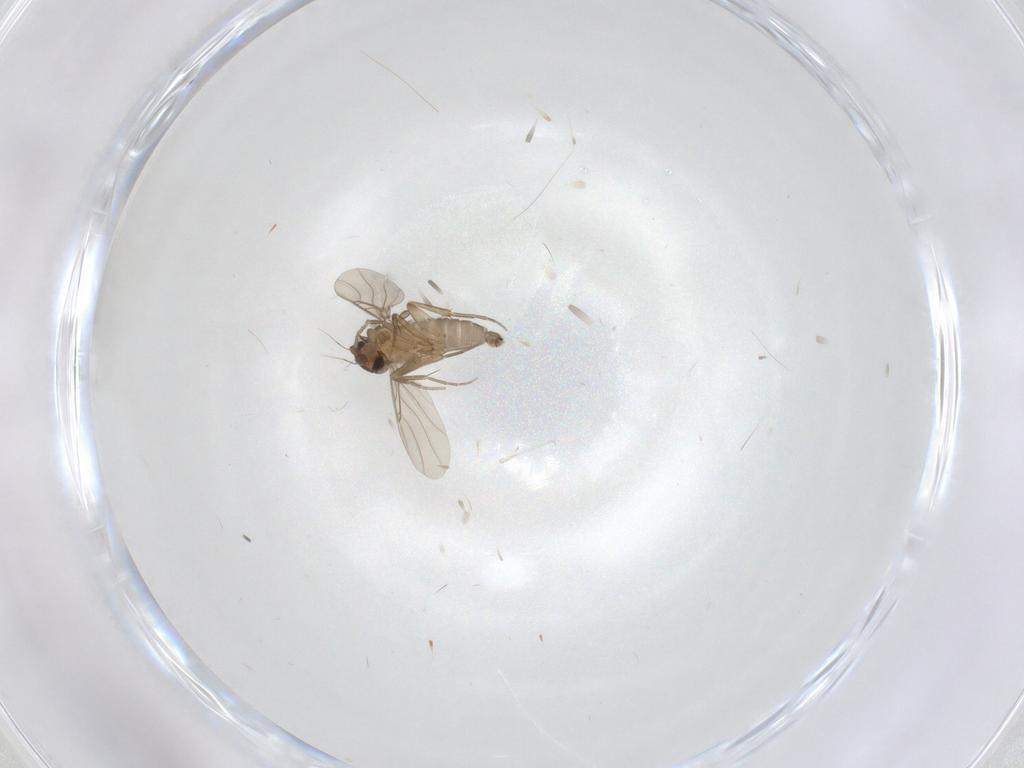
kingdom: Animalia
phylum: Arthropoda
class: Insecta
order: Diptera
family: Chironomidae
